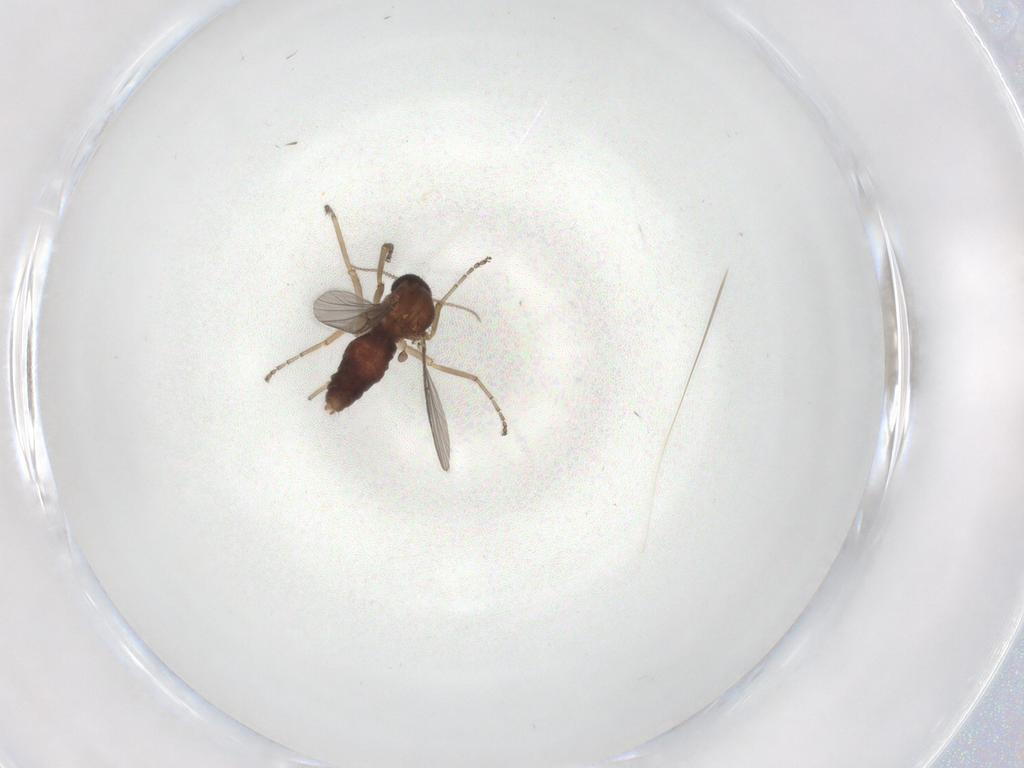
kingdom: Animalia
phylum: Arthropoda
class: Insecta
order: Diptera
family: Ceratopogonidae
